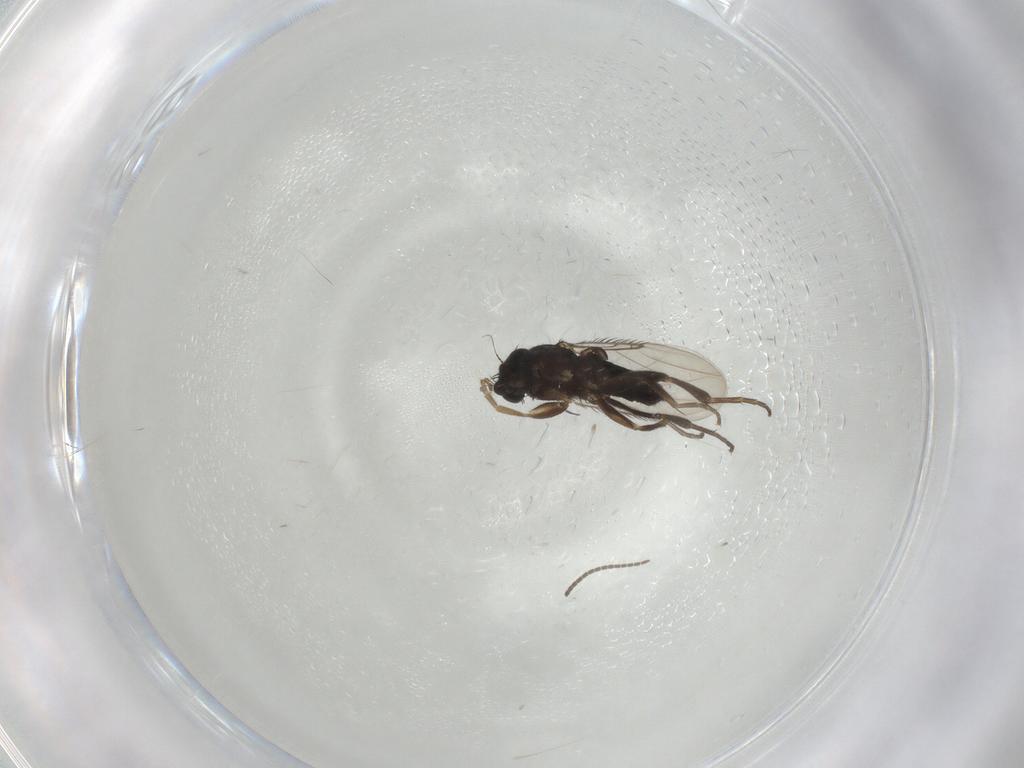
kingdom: Animalia
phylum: Arthropoda
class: Insecta
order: Diptera
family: Phoridae
